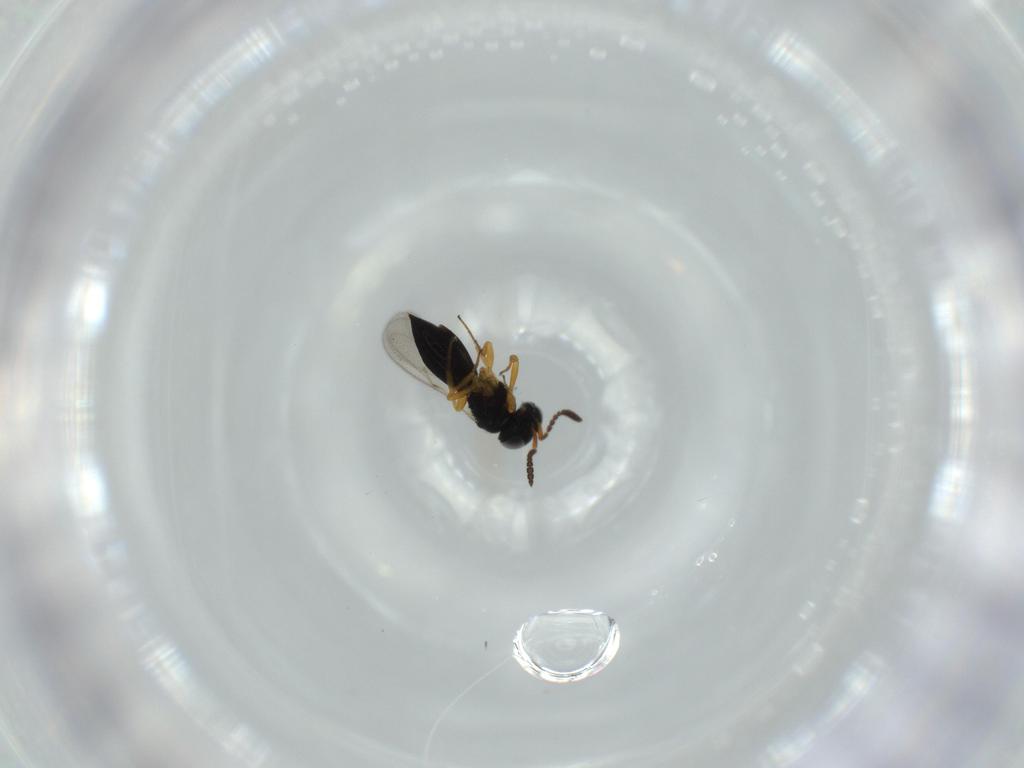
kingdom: Animalia
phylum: Arthropoda
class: Insecta
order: Hymenoptera
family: Scelionidae
